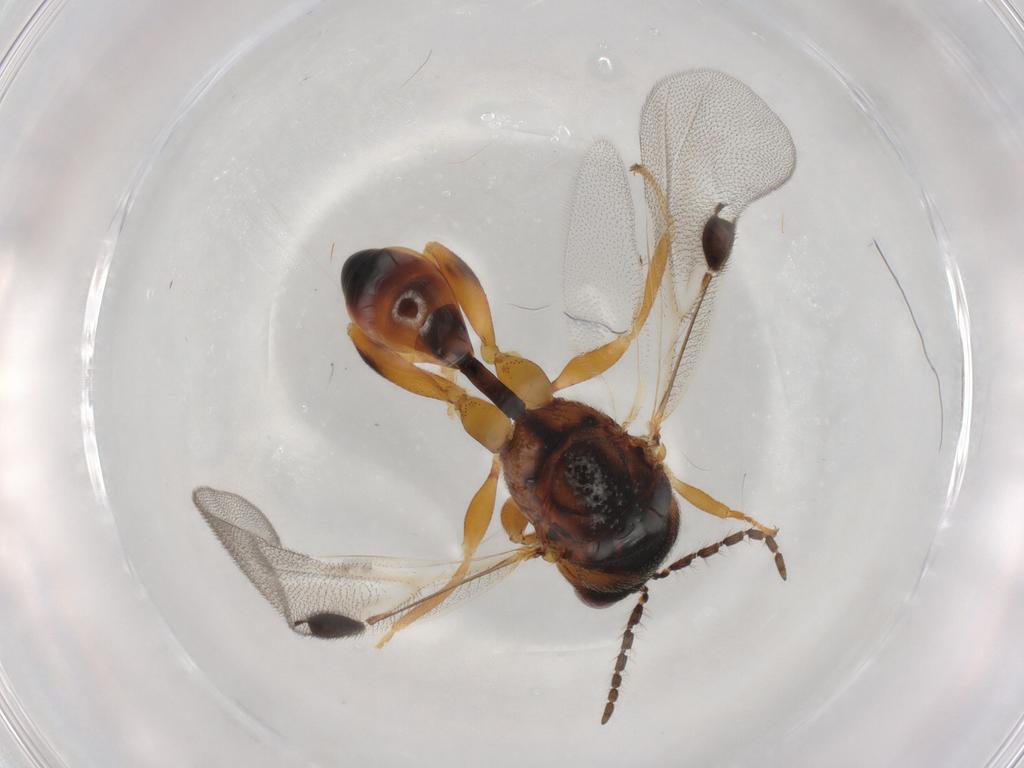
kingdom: Animalia
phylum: Arthropoda
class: Insecta
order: Hymenoptera
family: Eurytomidae
